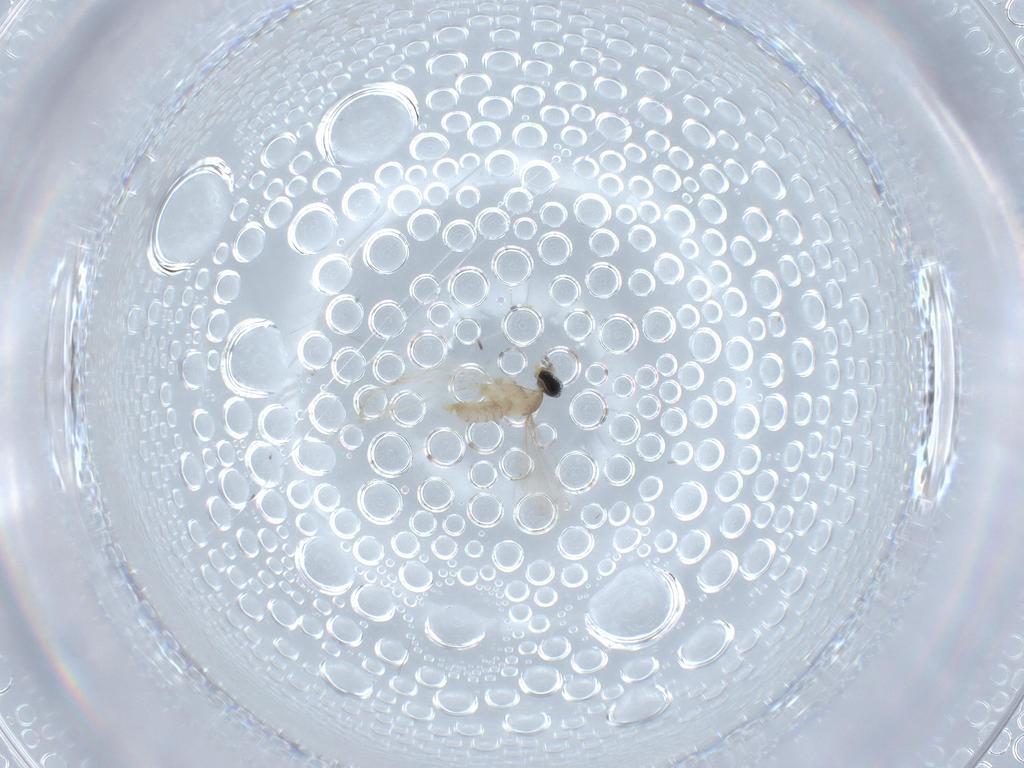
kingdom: Animalia
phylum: Arthropoda
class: Insecta
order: Diptera
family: Cecidomyiidae
